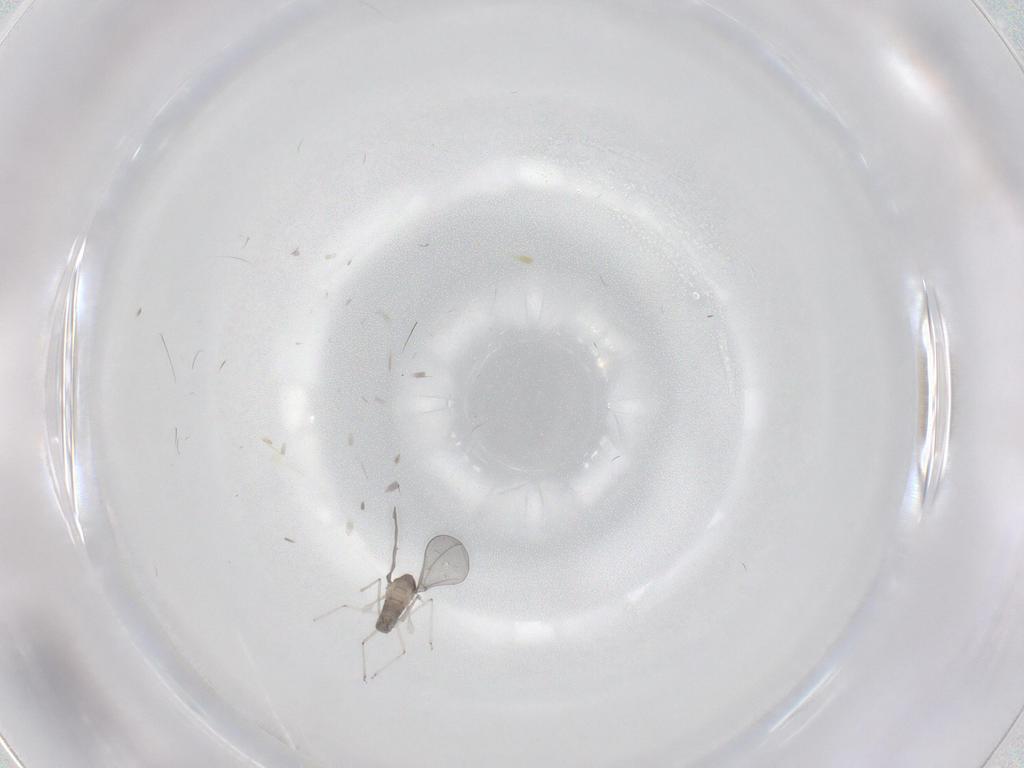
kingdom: Animalia
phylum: Arthropoda
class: Insecta
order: Diptera
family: Cecidomyiidae
